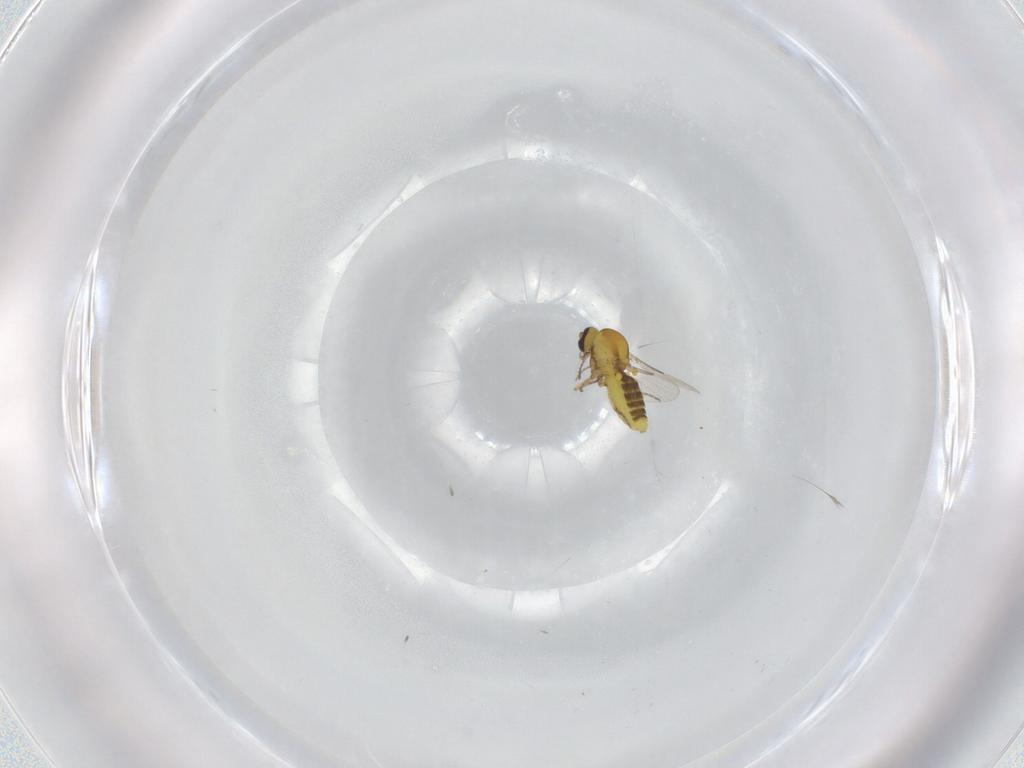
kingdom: Animalia
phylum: Arthropoda
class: Insecta
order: Diptera
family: Ceratopogonidae
